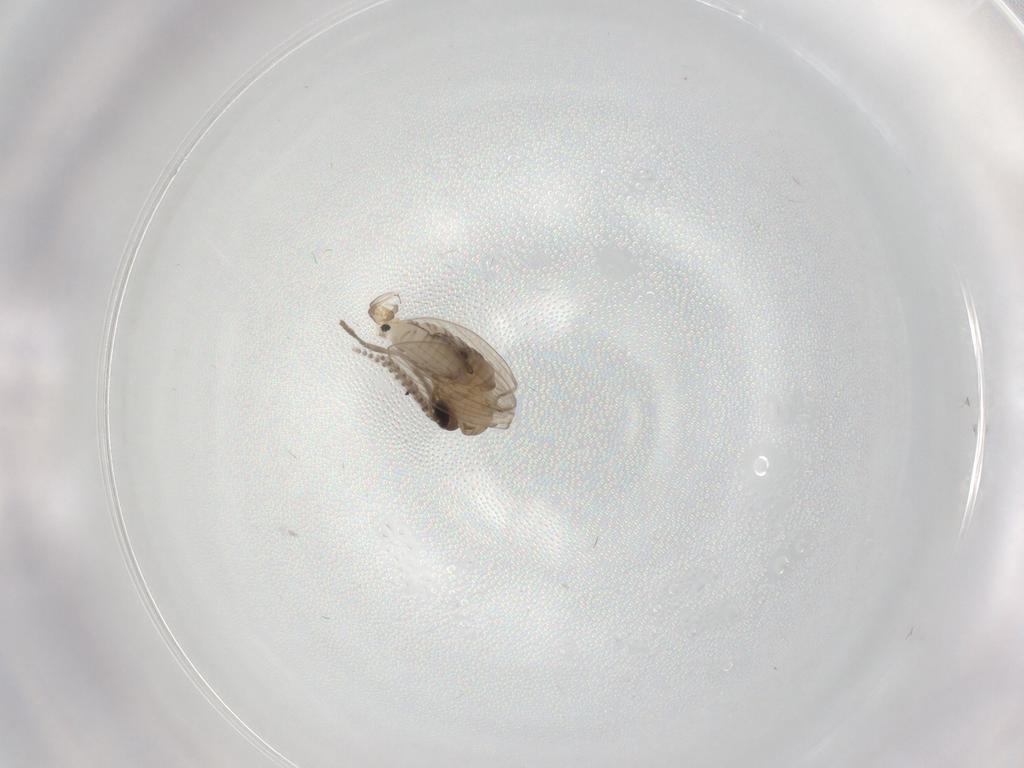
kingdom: Animalia
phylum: Arthropoda
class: Insecta
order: Diptera
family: Psychodidae
